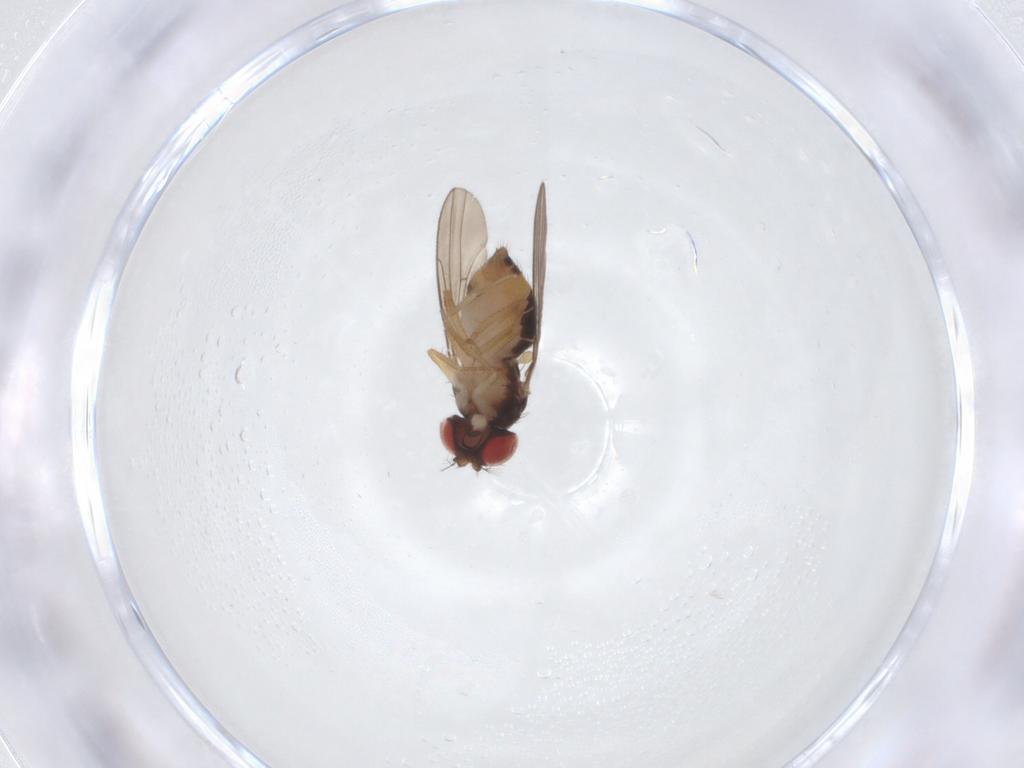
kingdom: Animalia
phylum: Arthropoda
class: Insecta
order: Diptera
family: Drosophilidae
